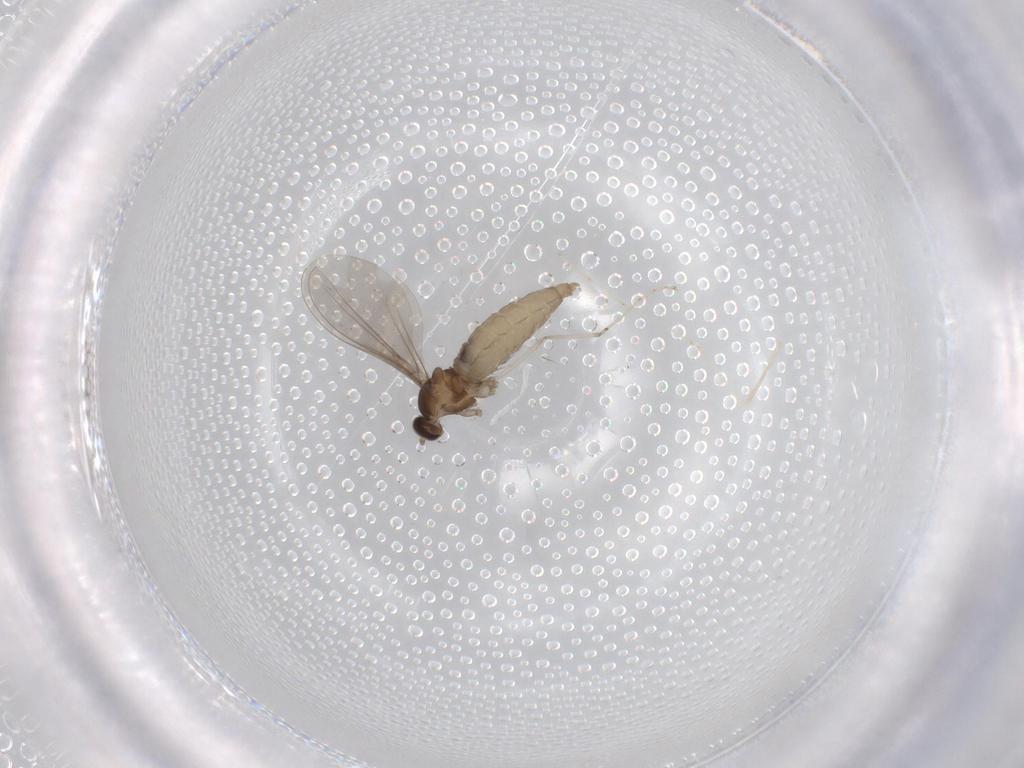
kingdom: Animalia
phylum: Arthropoda
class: Insecta
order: Diptera
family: Cecidomyiidae
